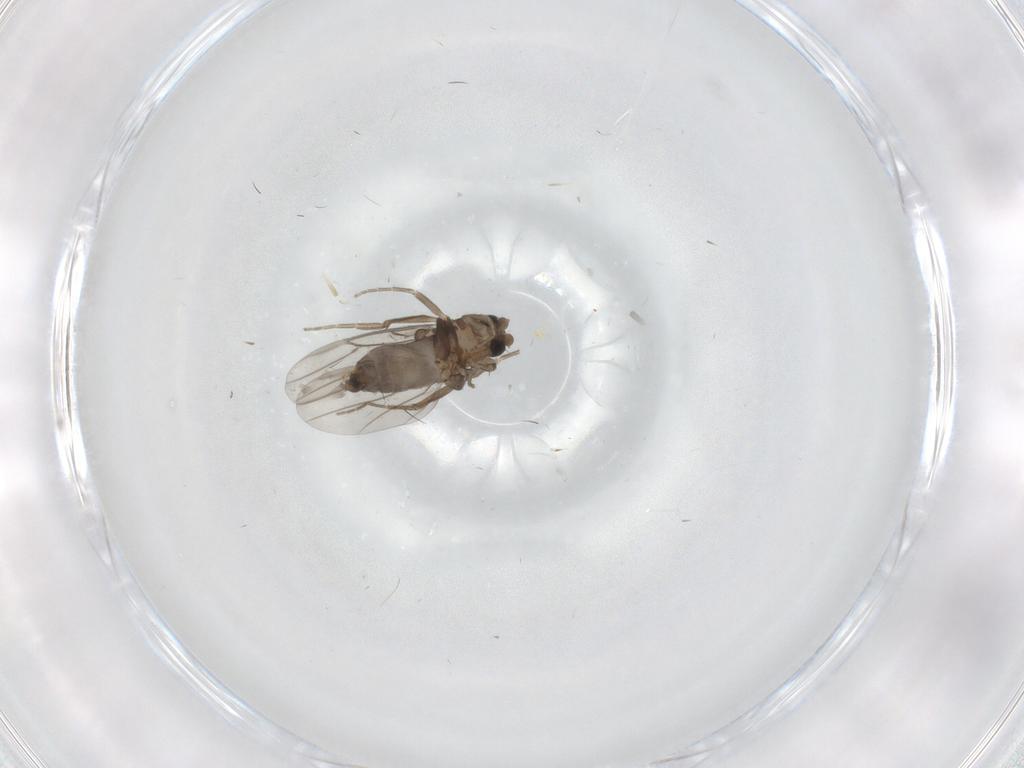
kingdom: Animalia
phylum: Arthropoda
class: Insecta
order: Diptera
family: Phoridae
